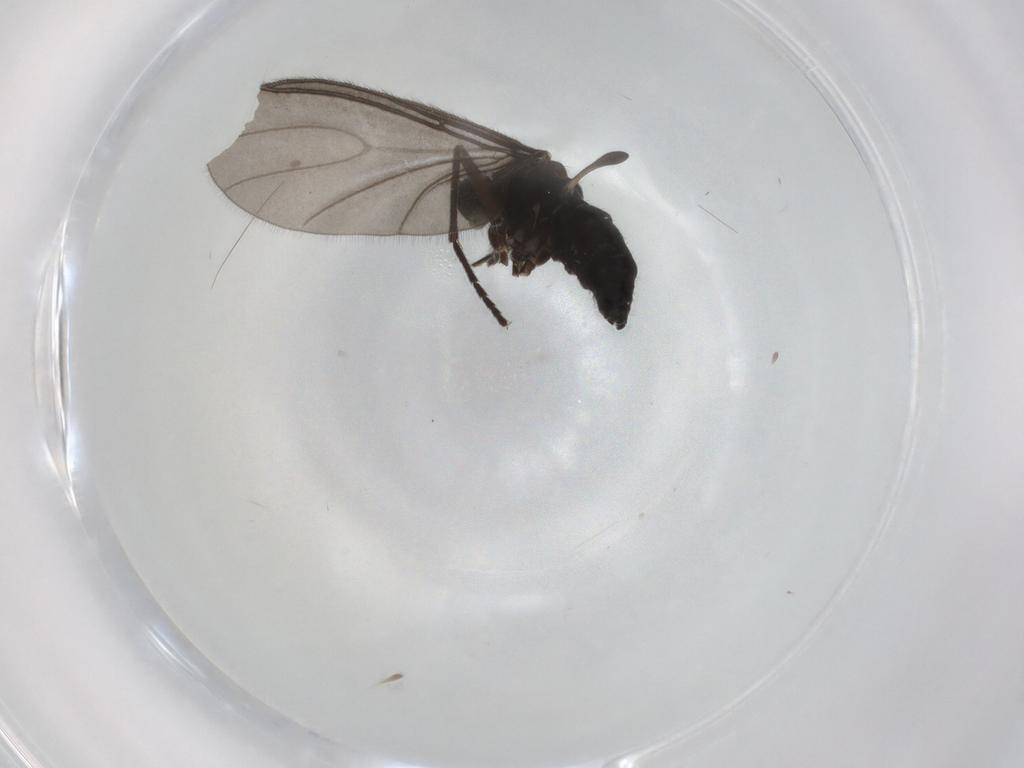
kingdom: Animalia
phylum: Arthropoda
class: Insecta
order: Diptera
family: Sciaridae
